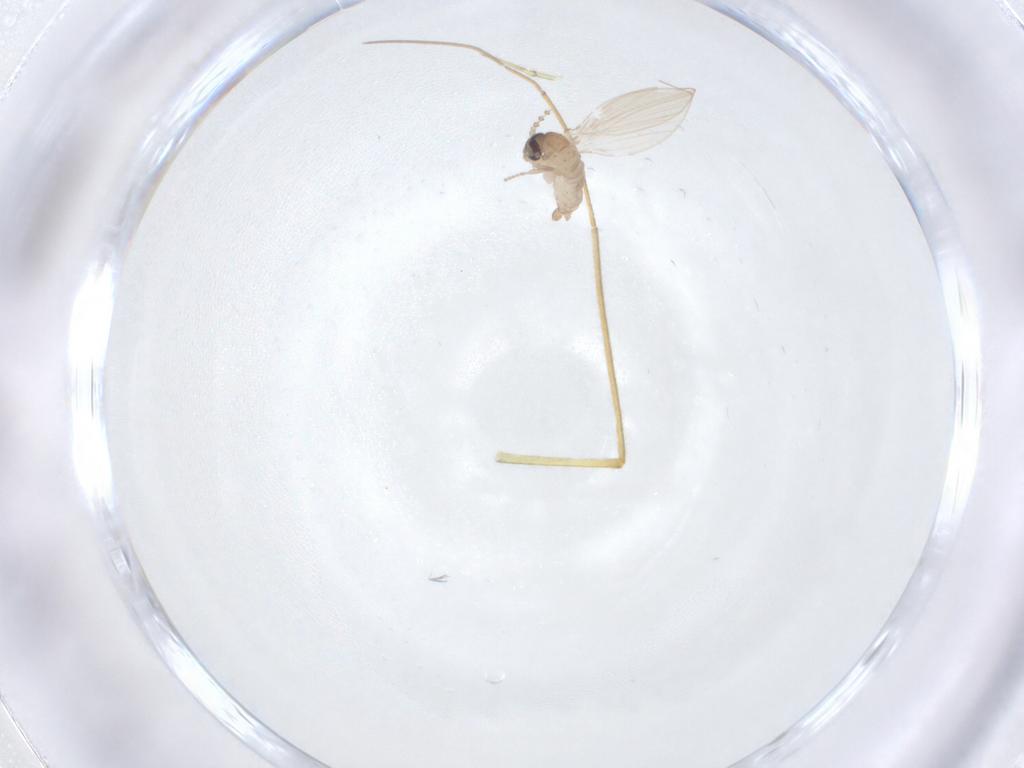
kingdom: Animalia
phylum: Arthropoda
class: Insecta
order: Diptera
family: Psychodidae
